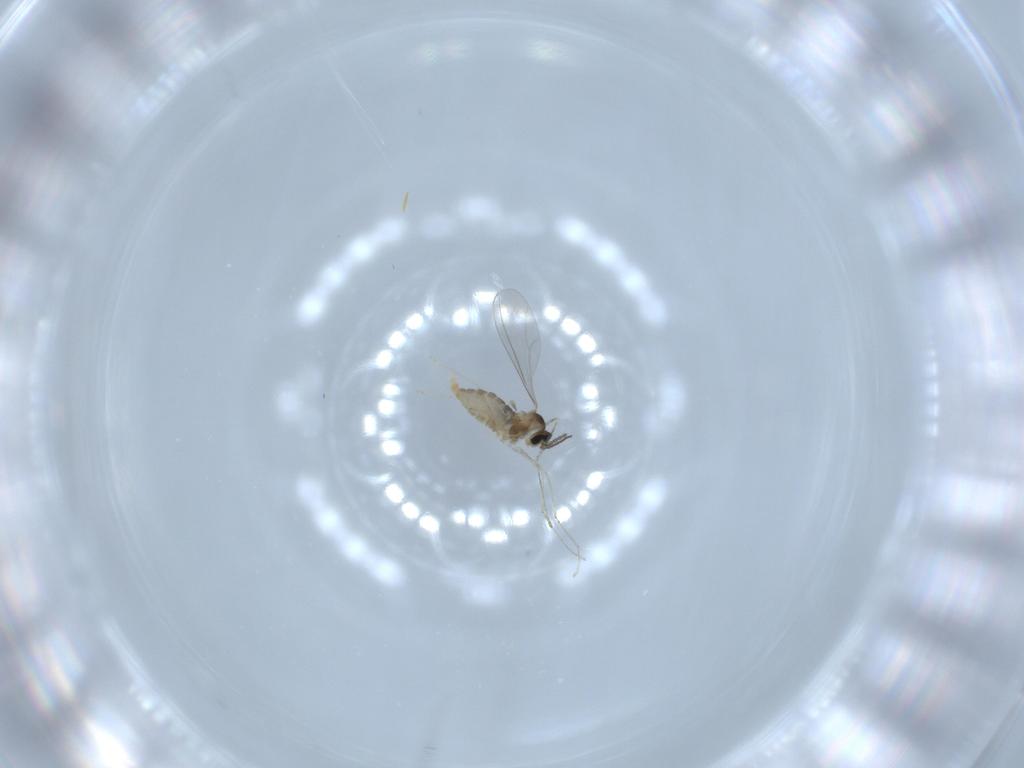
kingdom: Animalia
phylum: Arthropoda
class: Insecta
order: Diptera
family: Cecidomyiidae
